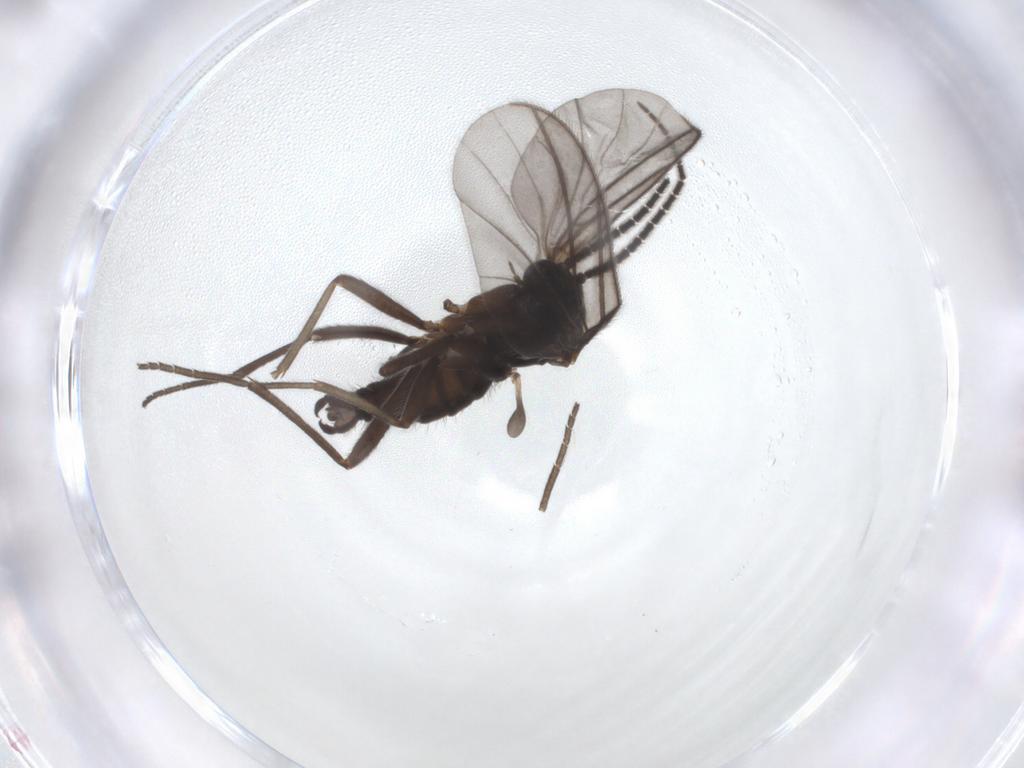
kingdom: Animalia
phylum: Arthropoda
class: Insecta
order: Diptera
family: Sciaridae
